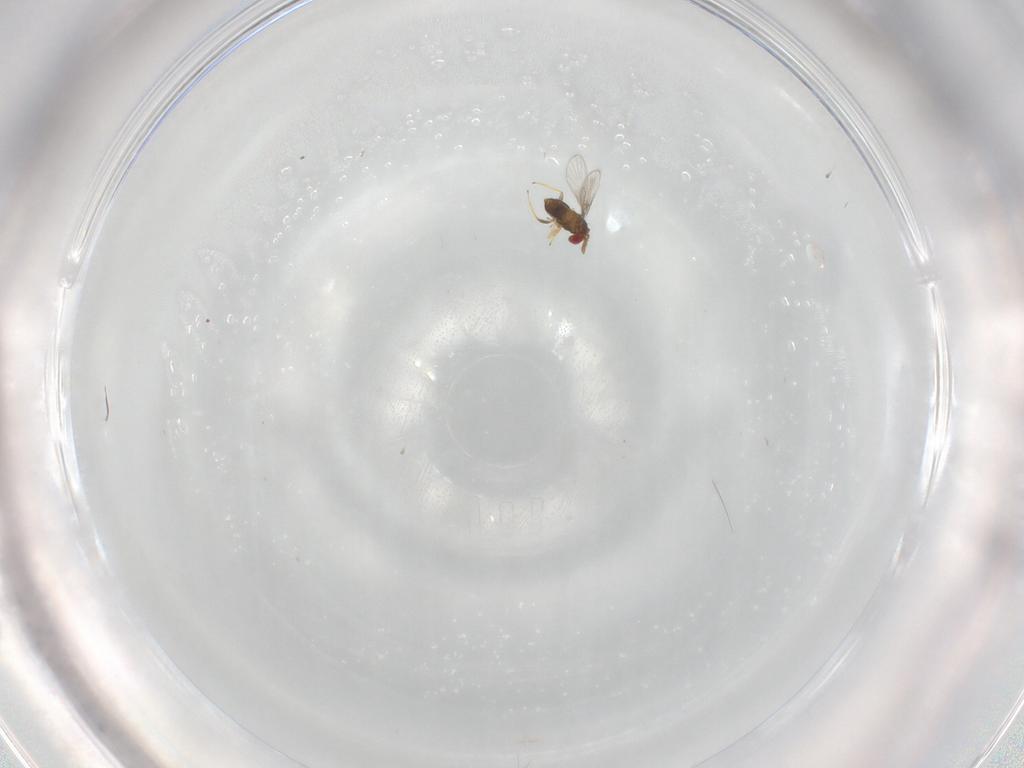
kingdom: Animalia
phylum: Arthropoda
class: Insecta
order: Hymenoptera
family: Trichogrammatidae
